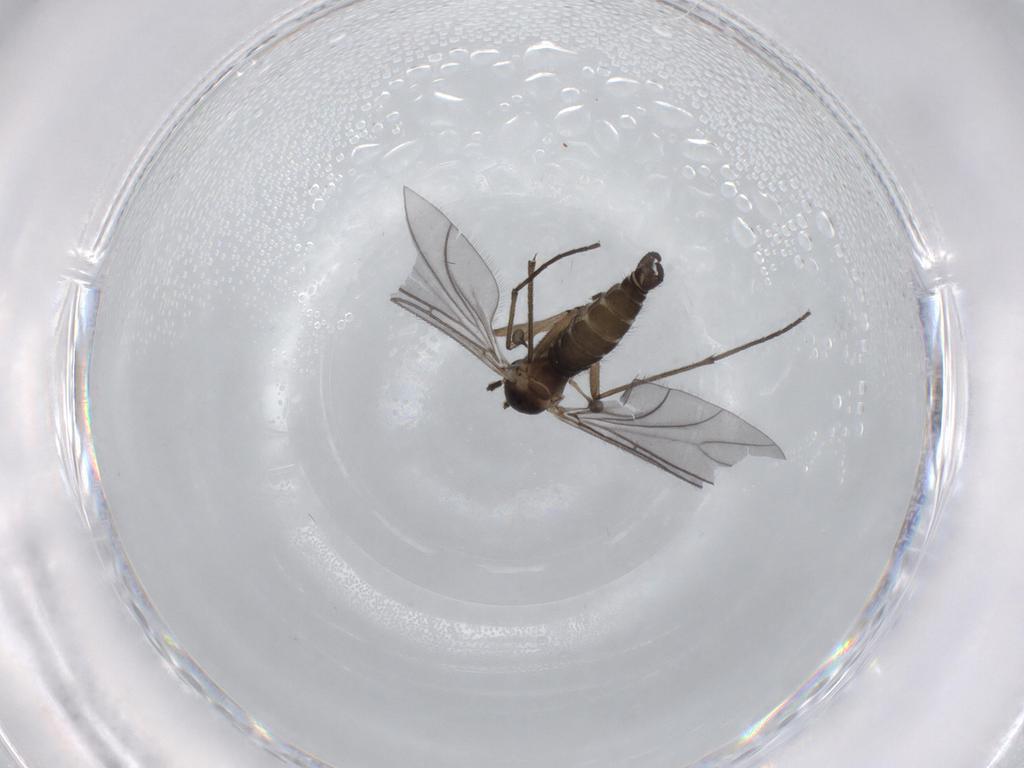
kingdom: Animalia
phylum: Arthropoda
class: Insecta
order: Diptera
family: Sciaridae
